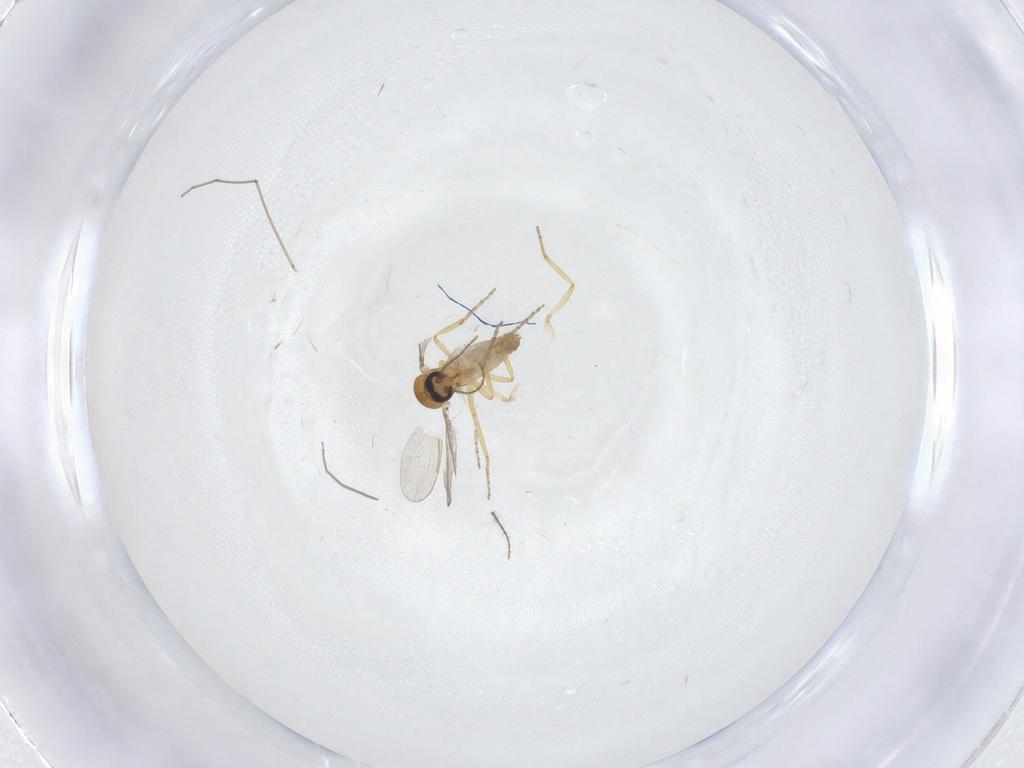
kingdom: Animalia
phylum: Arthropoda
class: Insecta
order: Diptera
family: Ceratopogonidae
